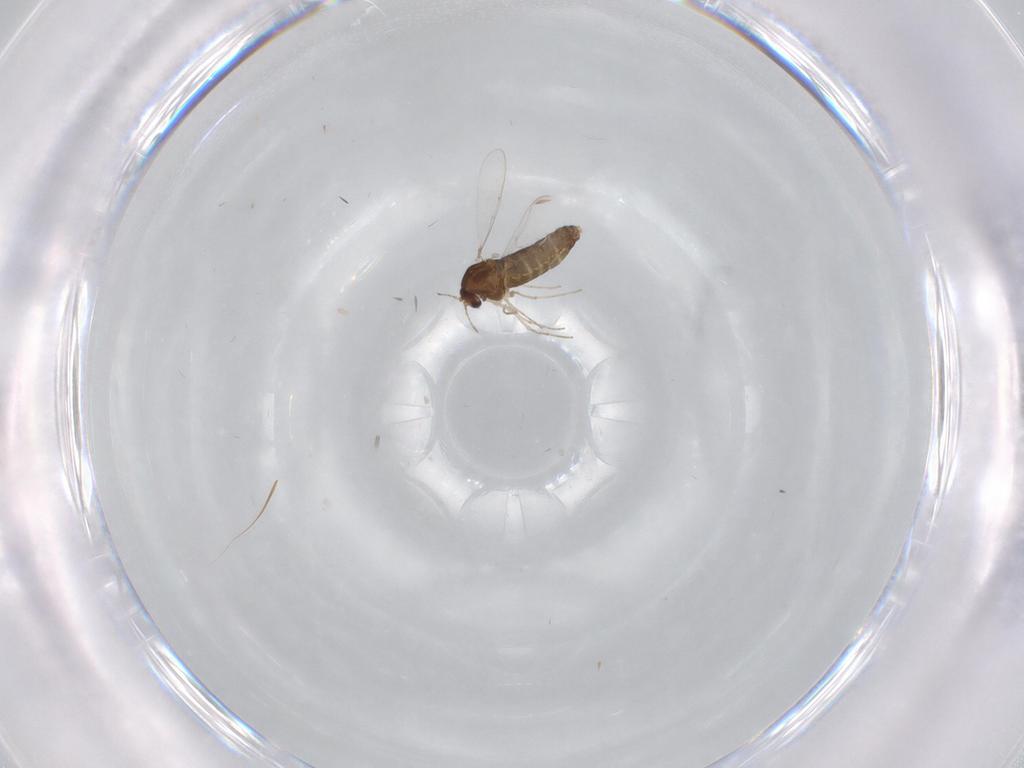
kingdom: Animalia
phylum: Arthropoda
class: Insecta
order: Diptera
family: Chironomidae
